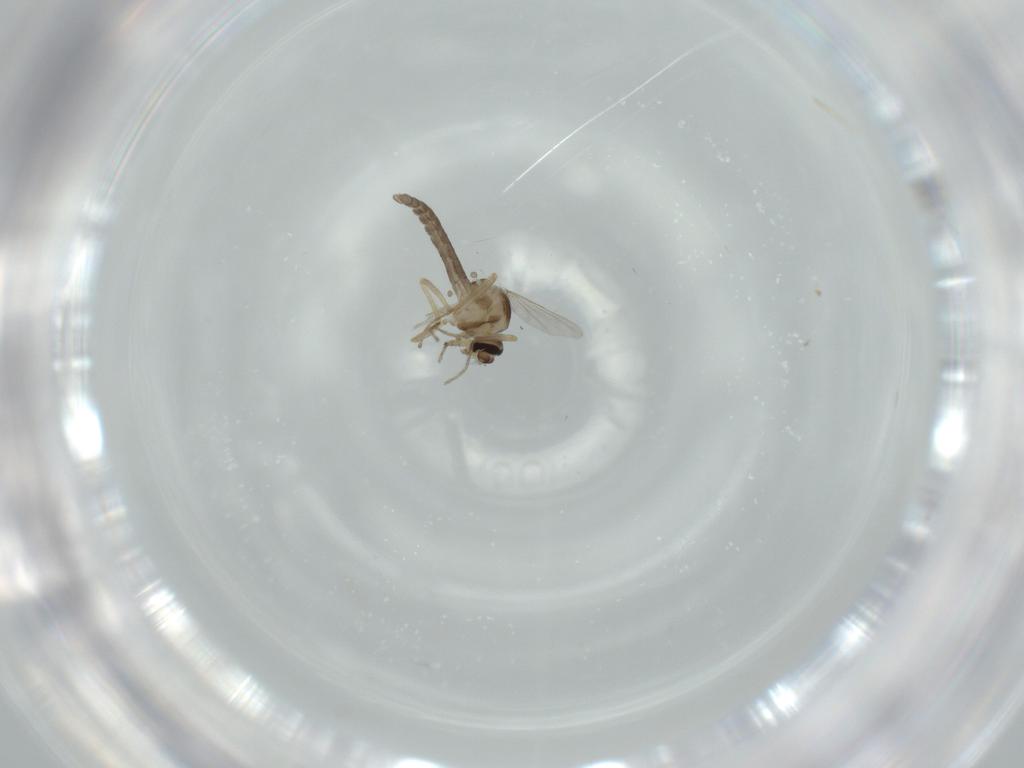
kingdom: Animalia
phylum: Arthropoda
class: Insecta
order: Diptera
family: Ceratopogonidae
